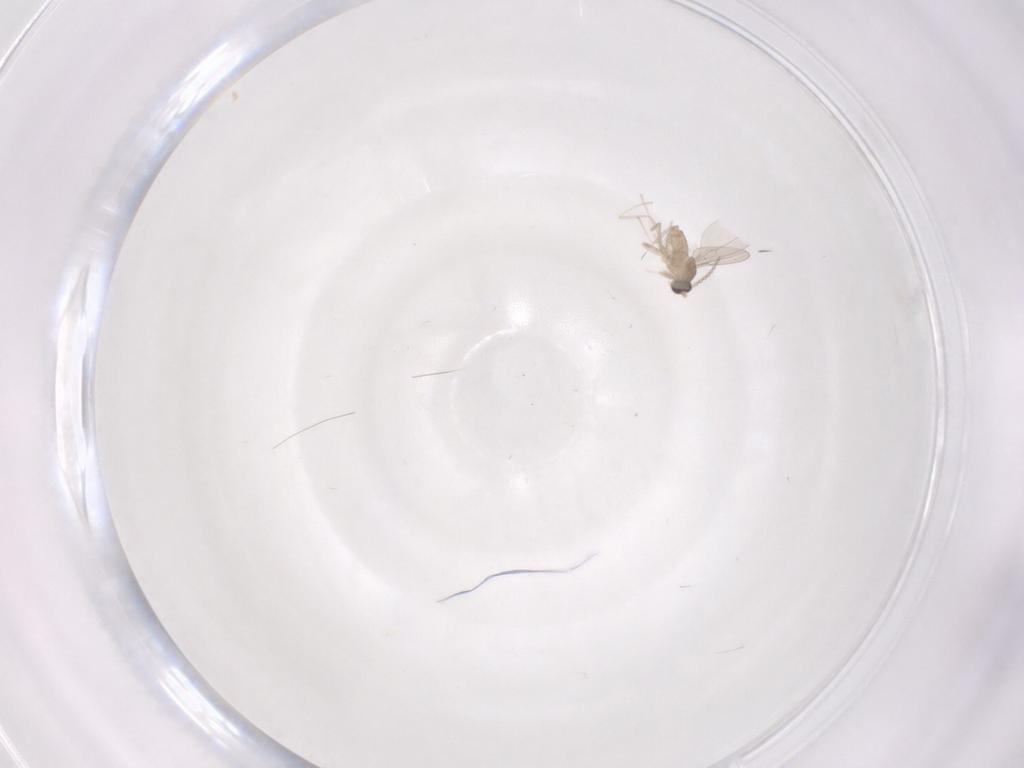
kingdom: Animalia
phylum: Arthropoda
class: Insecta
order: Diptera
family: Cecidomyiidae
